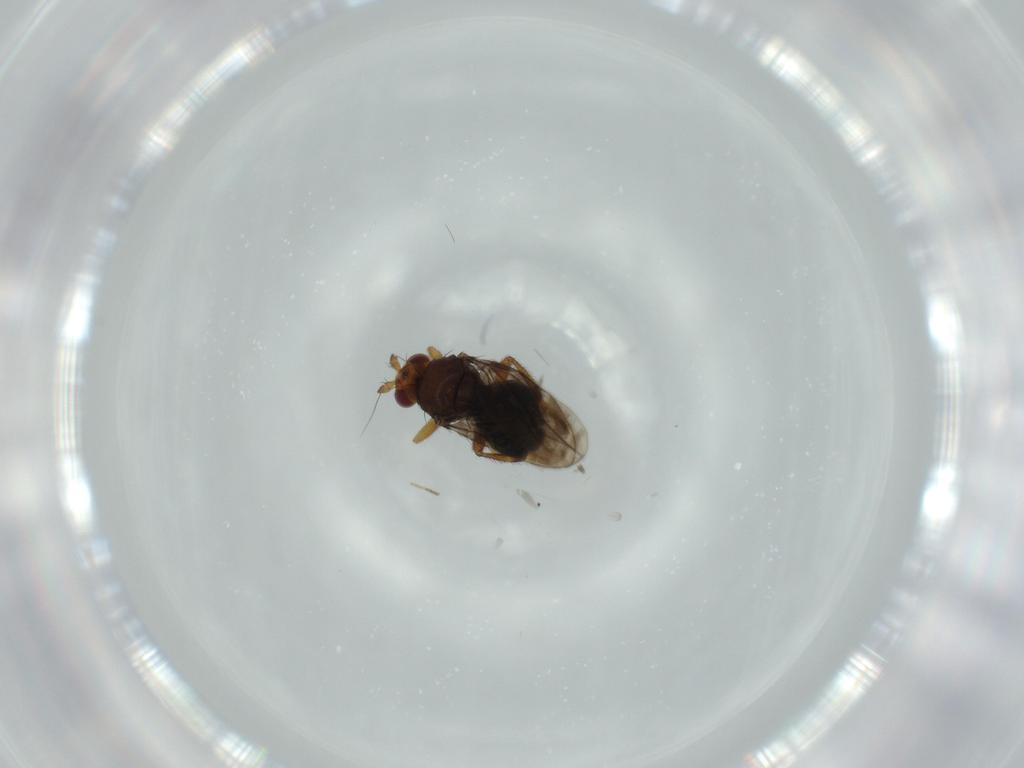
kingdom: Animalia
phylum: Arthropoda
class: Insecta
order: Diptera
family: Sphaeroceridae
